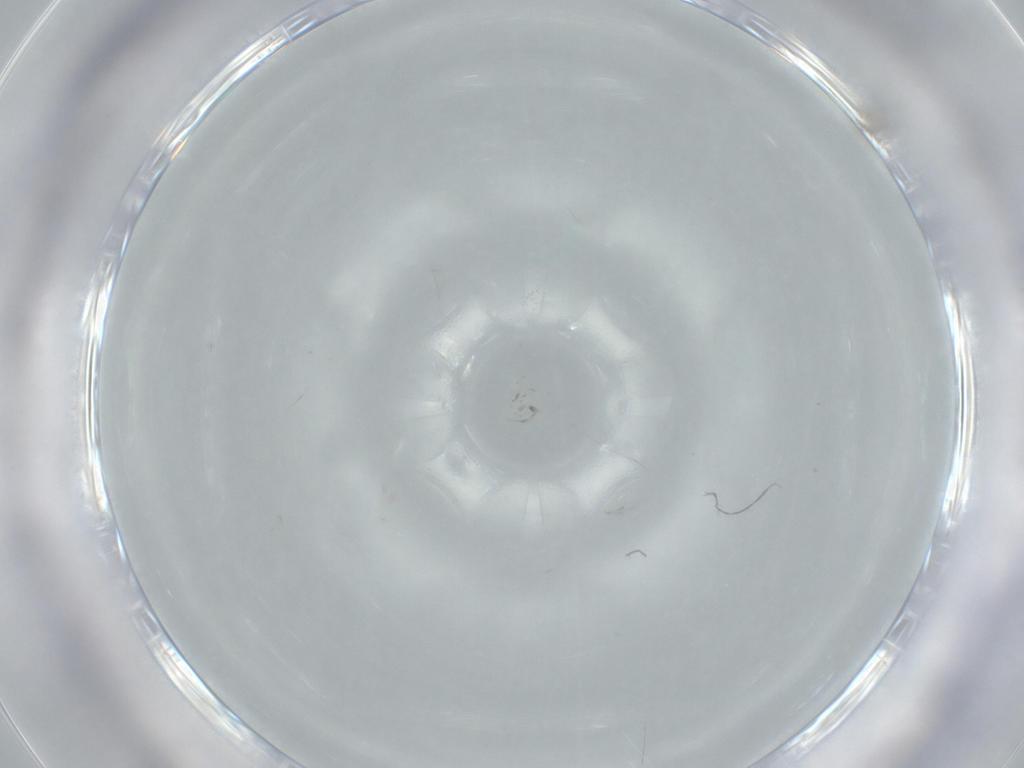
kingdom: Animalia
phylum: Arthropoda
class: Insecta
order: Psocodea
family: Liposcelididae
